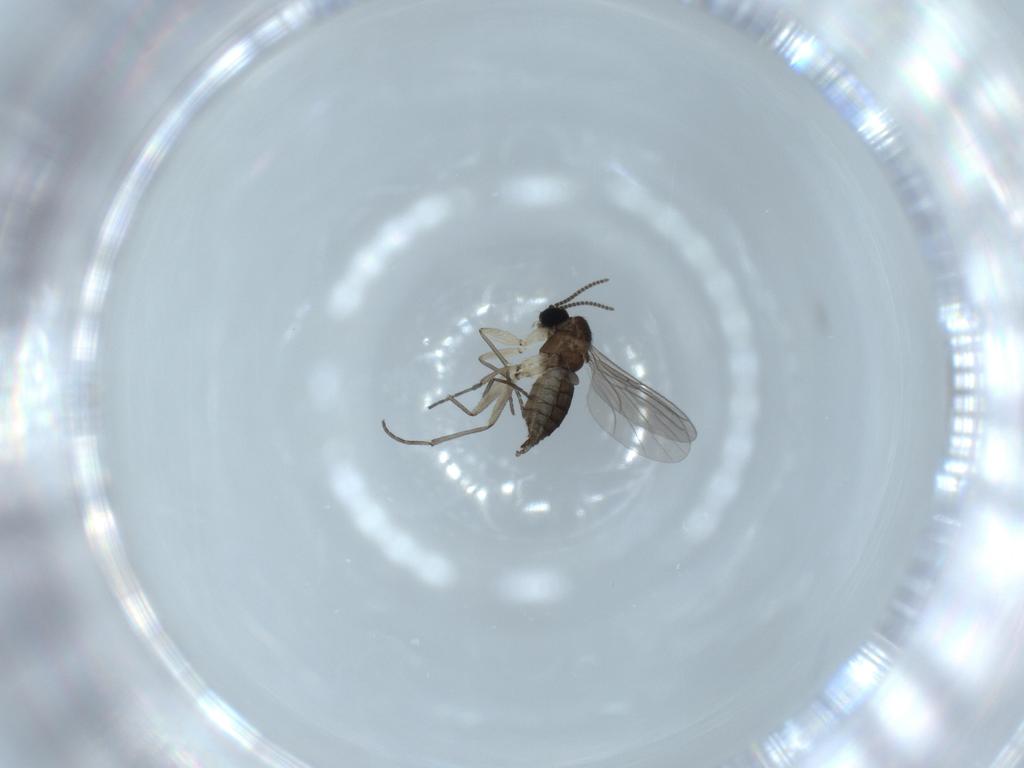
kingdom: Animalia
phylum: Arthropoda
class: Insecta
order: Diptera
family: Sciaridae
